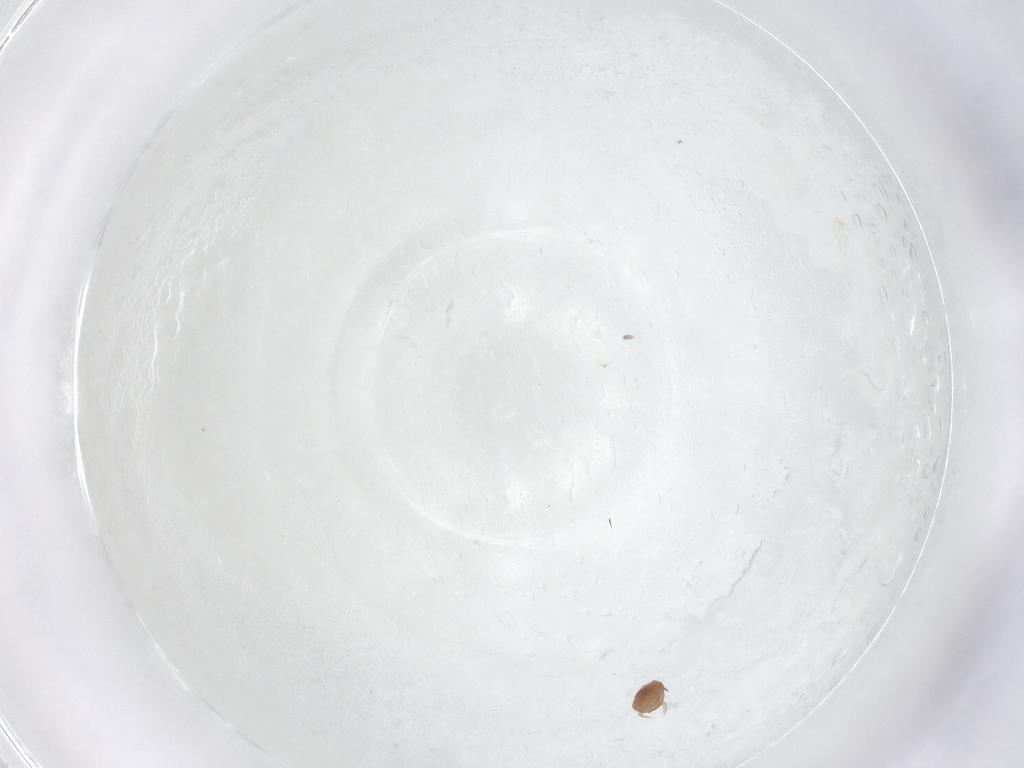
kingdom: Animalia
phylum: Arthropoda
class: Arachnida
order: Mesostigmata
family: Trematuridae
